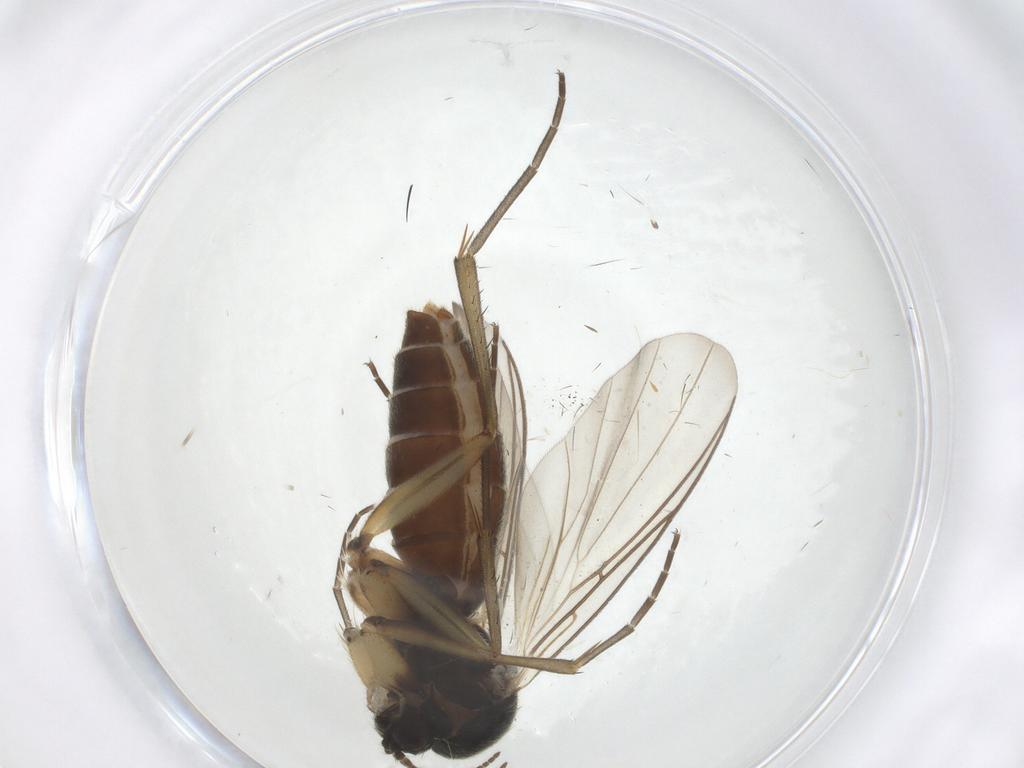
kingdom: Animalia
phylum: Arthropoda
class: Insecta
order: Diptera
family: Mycetophilidae
